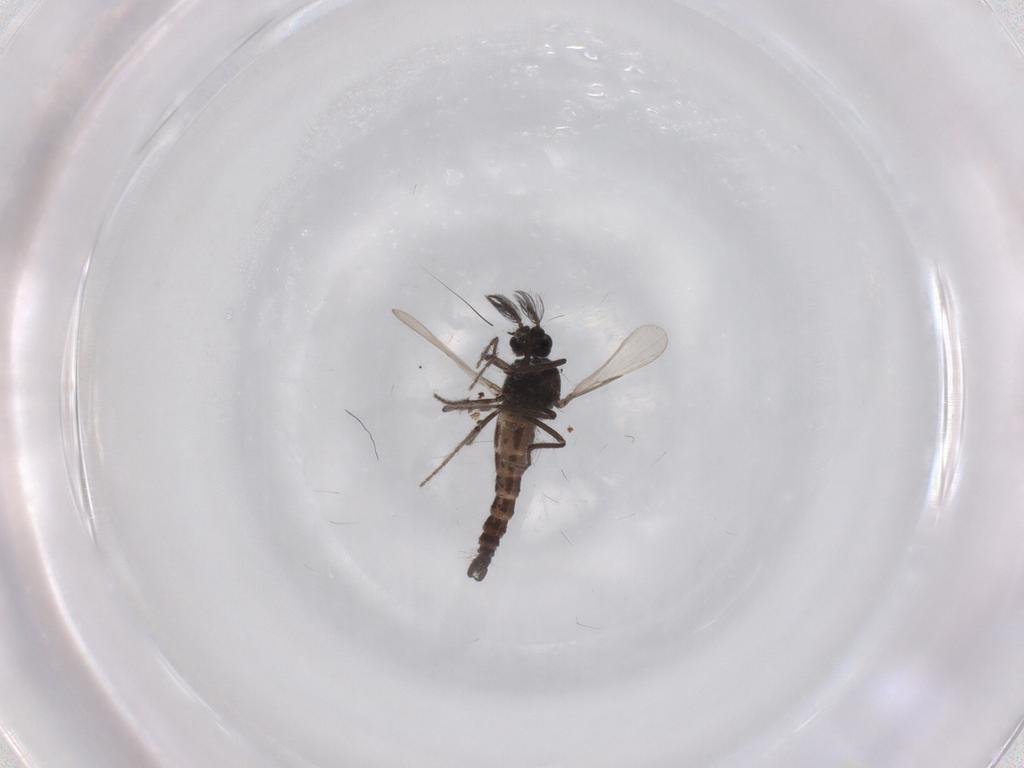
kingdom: Animalia
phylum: Arthropoda
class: Insecta
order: Diptera
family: Ceratopogonidae
